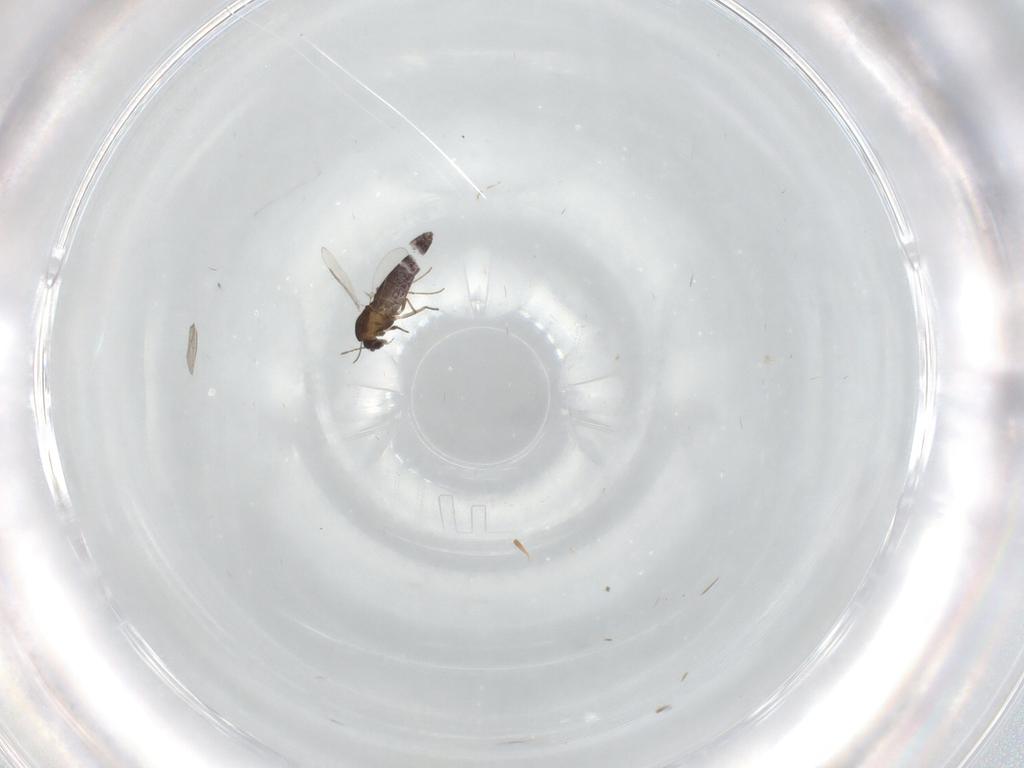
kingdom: Animalia
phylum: Arthropoda
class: Insecta
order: Diptera
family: Chironomidae
